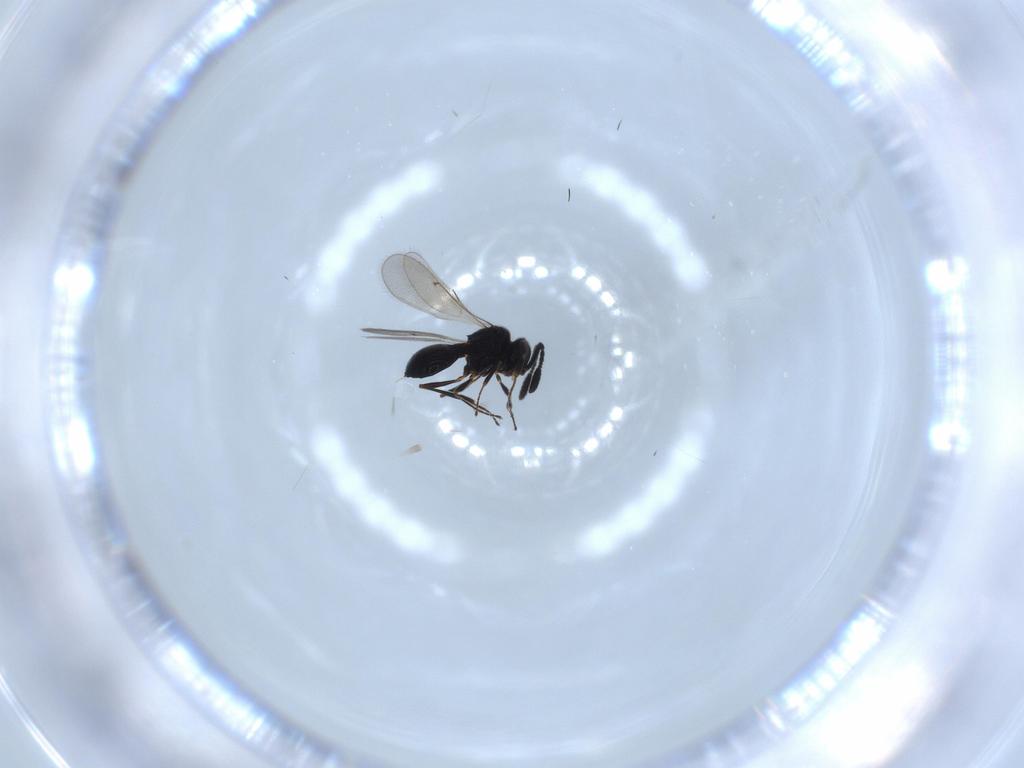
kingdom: Animalia
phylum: Arthropoda
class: Insecta
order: Hymenoptera
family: Scelionidae
